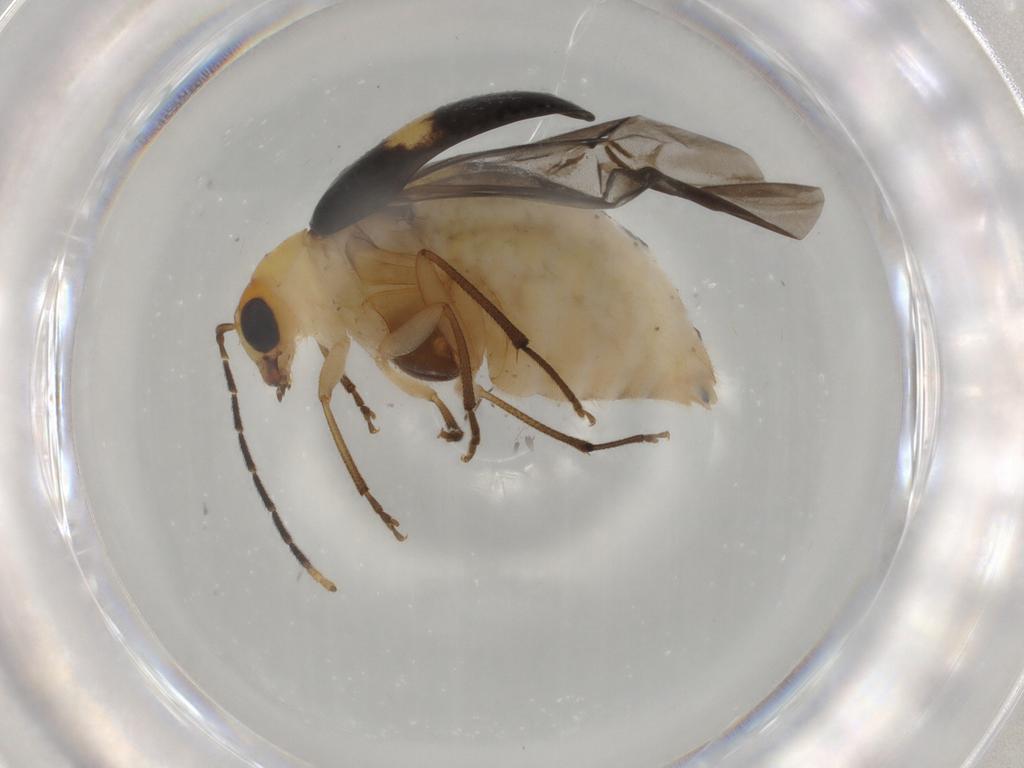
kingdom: Animalia
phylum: Arthropoda
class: Insecta
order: Coleoptera
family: Chrysomelidae
